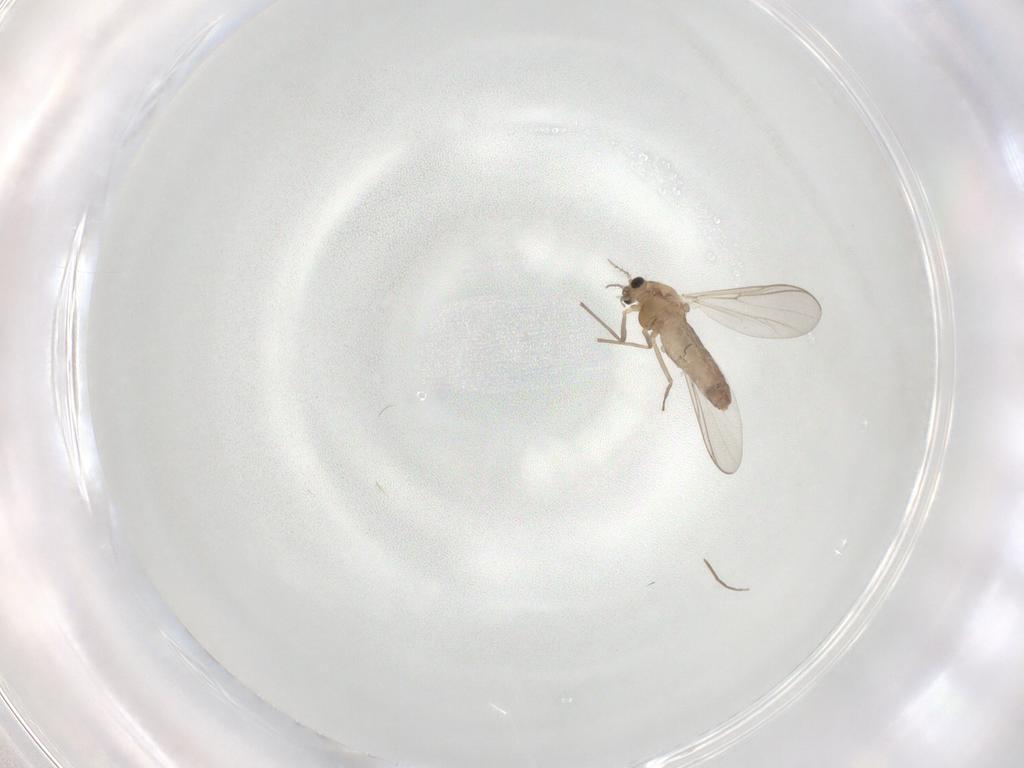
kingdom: Animalia
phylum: Arthropoda
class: Insecta
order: Diptera
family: Chironomidae
